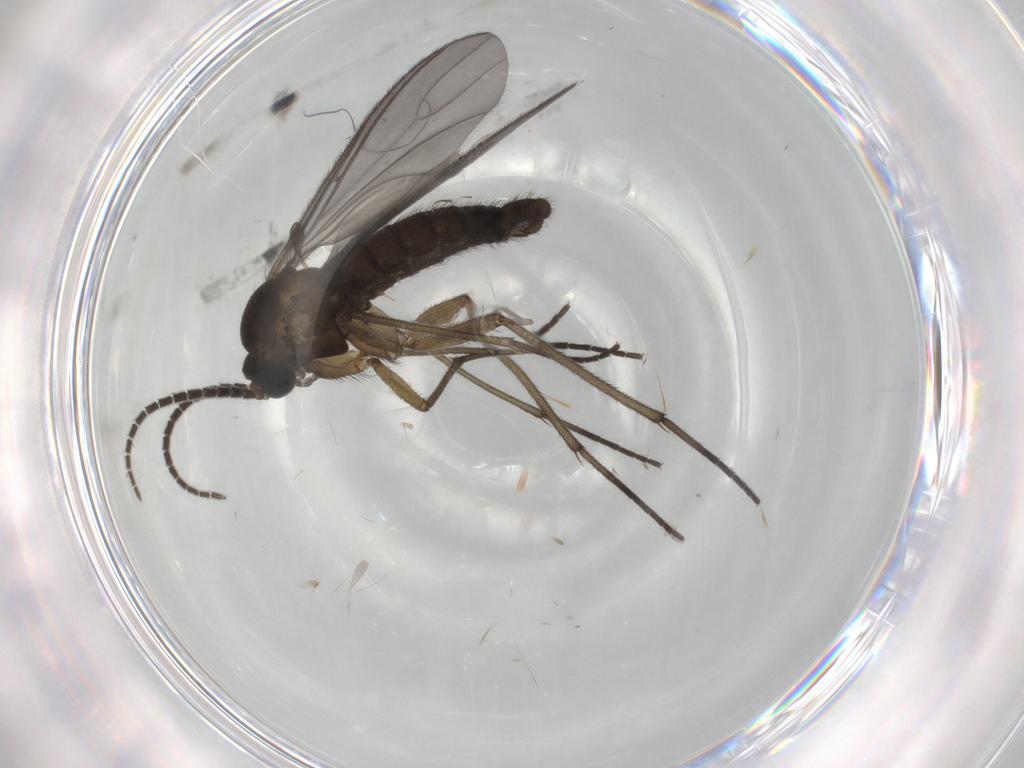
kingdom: Animalia
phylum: Arthropoda
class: Insecta
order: Diptera
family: Sciaridae
